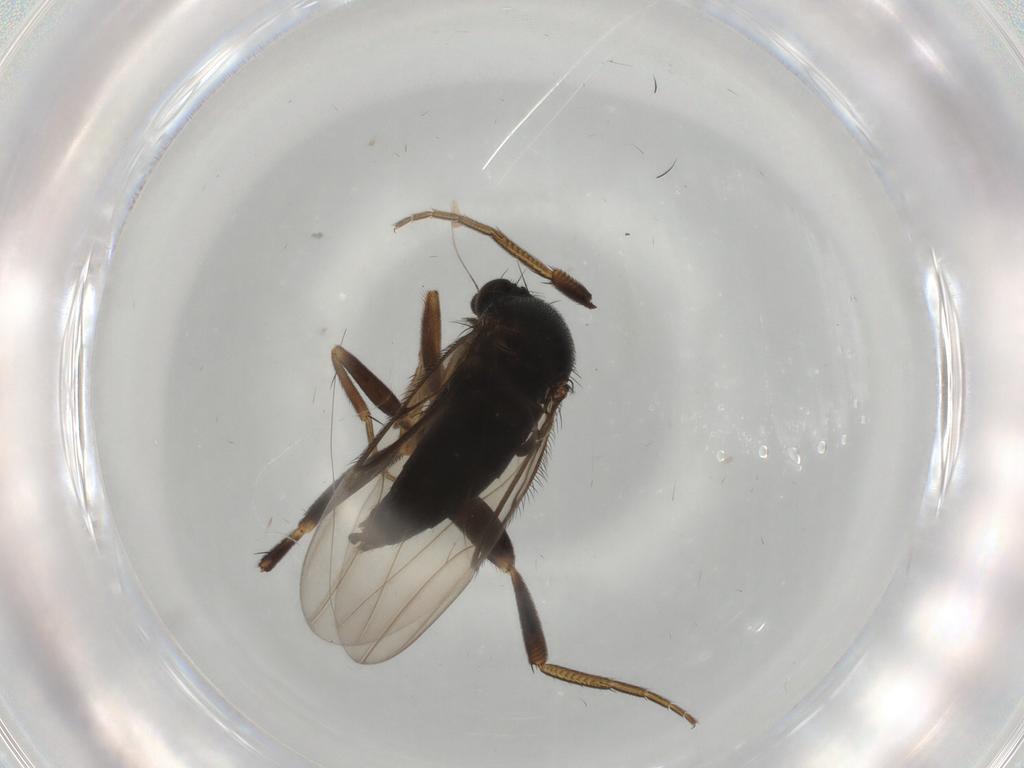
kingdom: Animalia
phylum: Arthropoda
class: Insecta
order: Diptera
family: Phoridae
